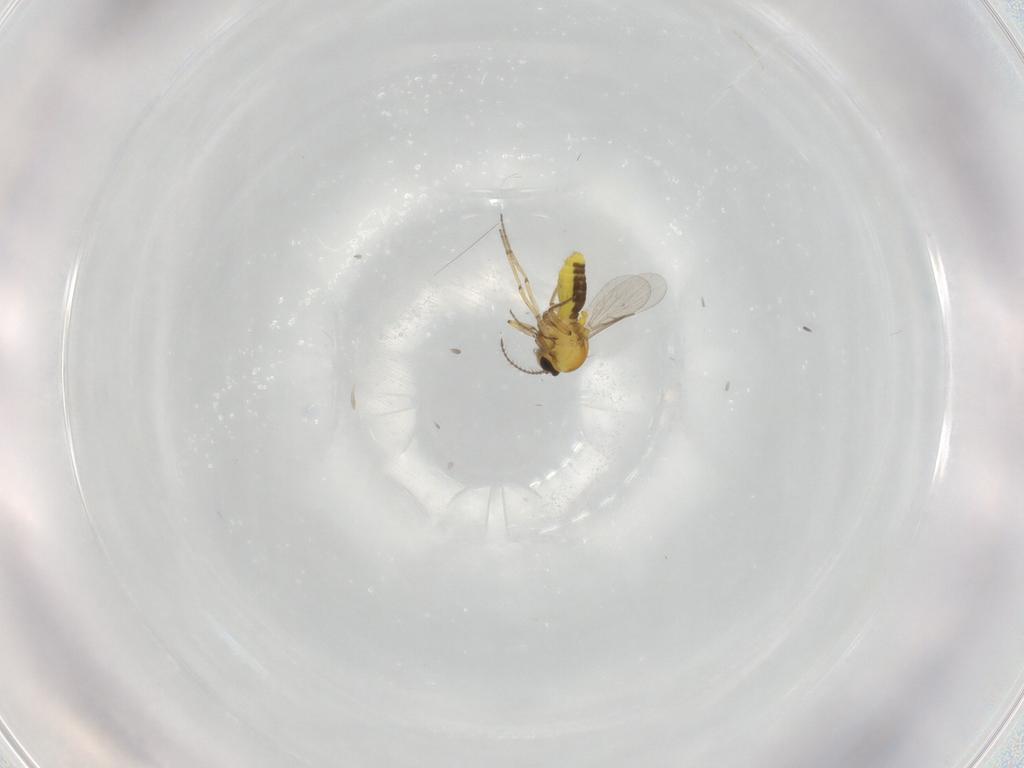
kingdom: Animalia
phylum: Arthropoda
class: Insecta
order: Diptera
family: Ceratopogonidae
